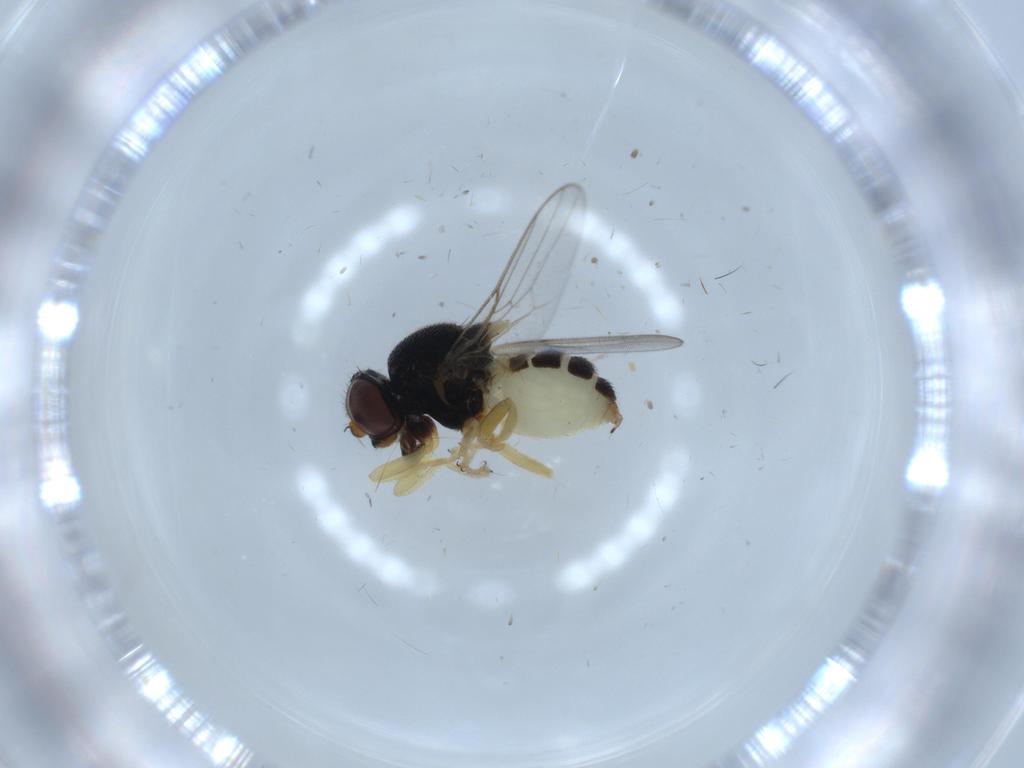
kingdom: Animalia
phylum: Arthropoda
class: Insecta
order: Diptera
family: Chloropidae
